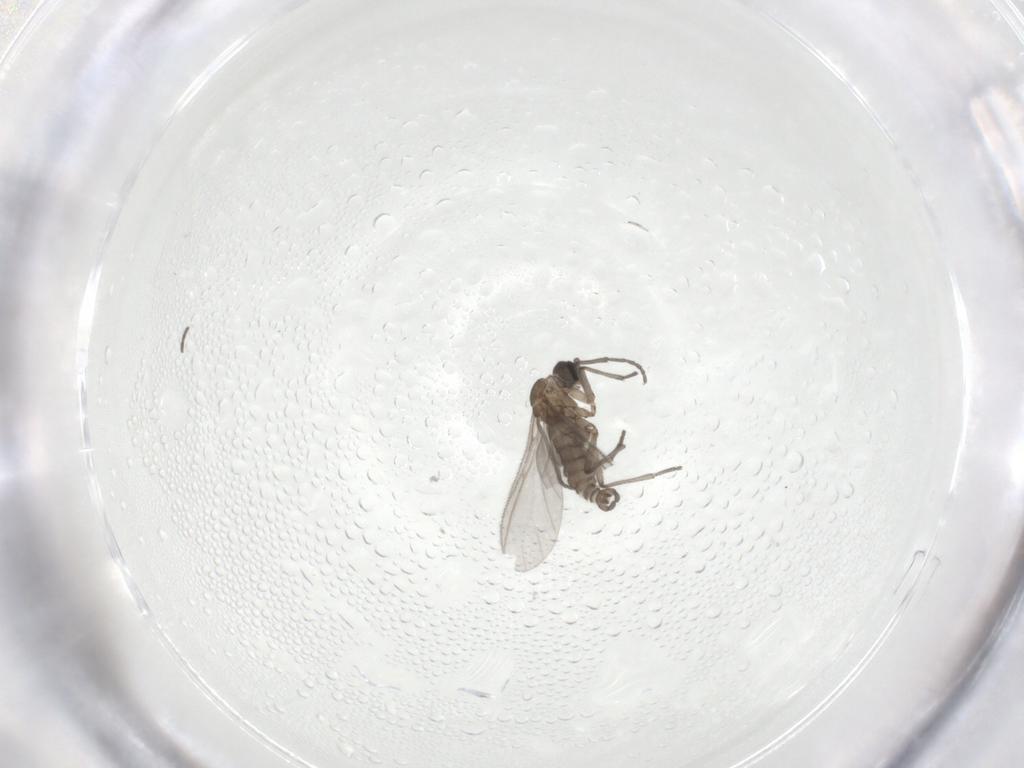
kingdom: Animalia
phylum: Arthropoda
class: Insecta
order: Diptera
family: Sciaridae
